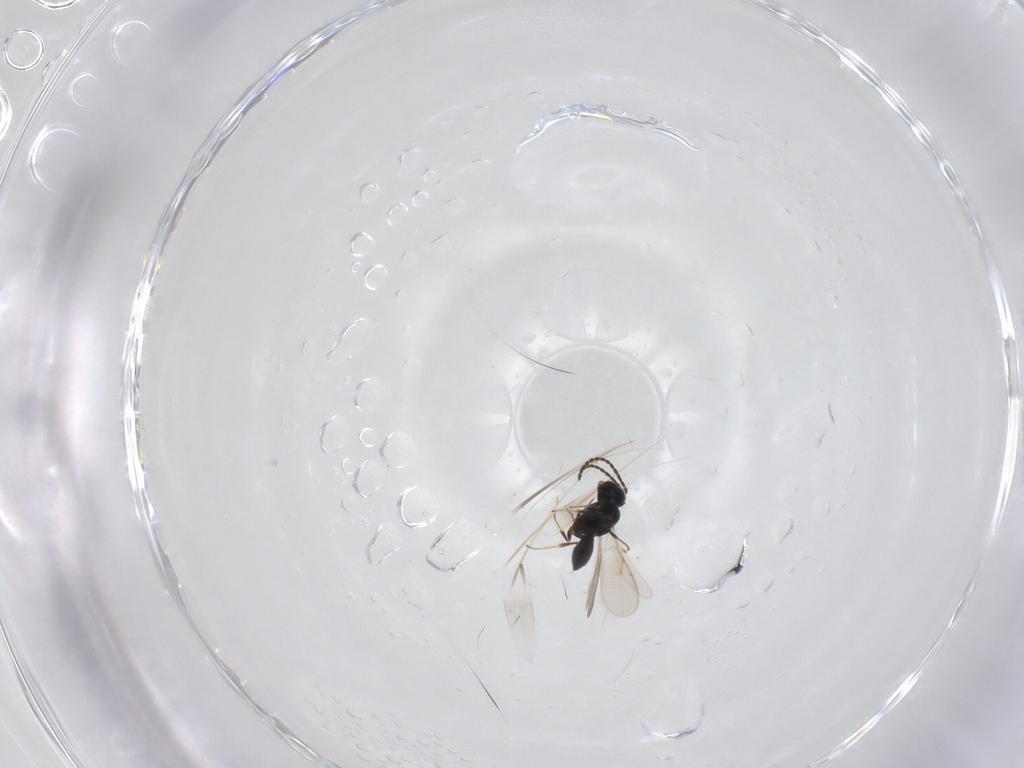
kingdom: Animalia
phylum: Arthropoda
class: Insecta
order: Hymenoptera
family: Scelionidae
